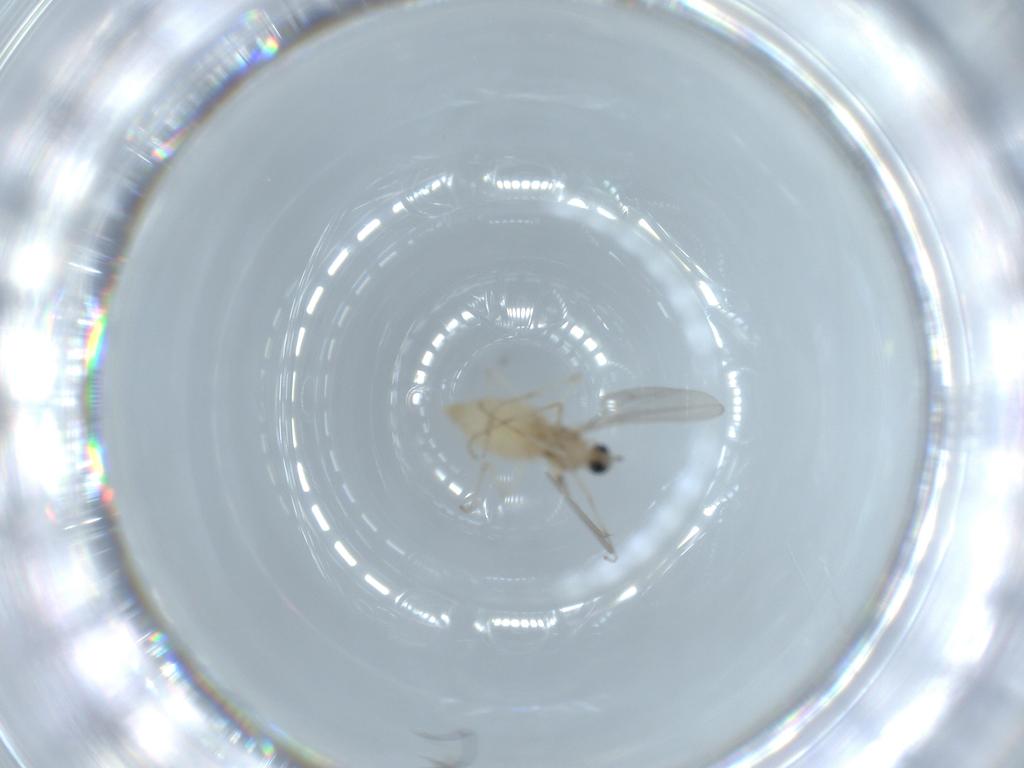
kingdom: Animalia
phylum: Arthropoda
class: Insecta
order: Diptera
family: Cecidomyiidae
